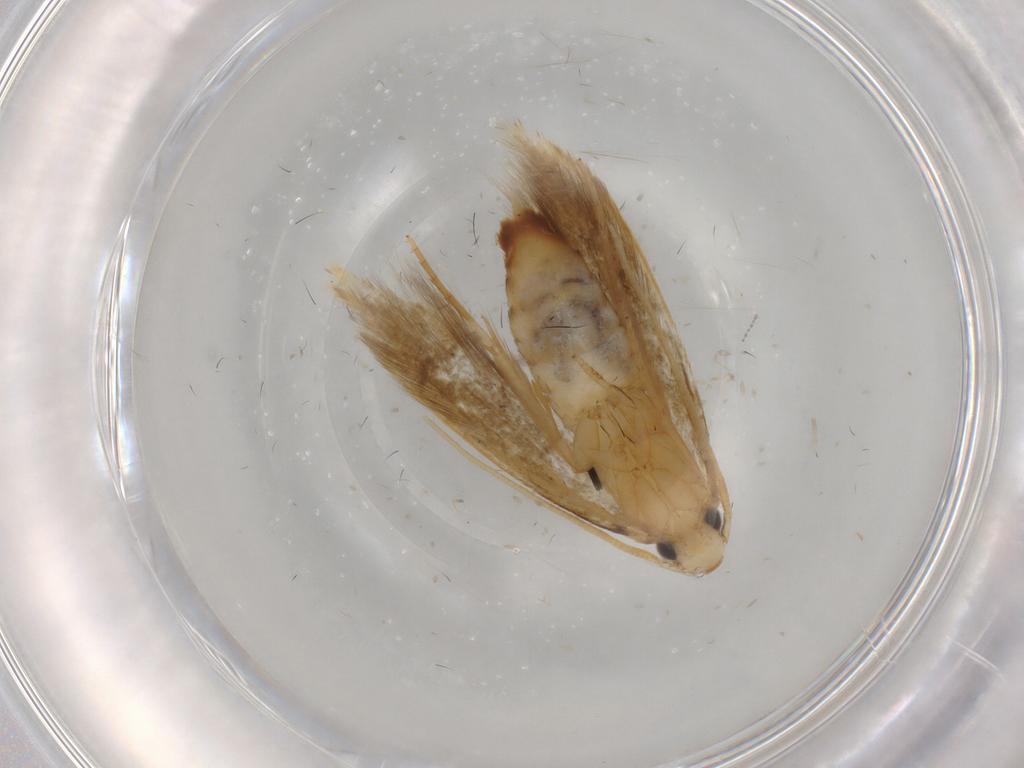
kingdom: Animalia
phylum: Arthropoda
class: Insecta
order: Lepidoptera
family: Tineidae
